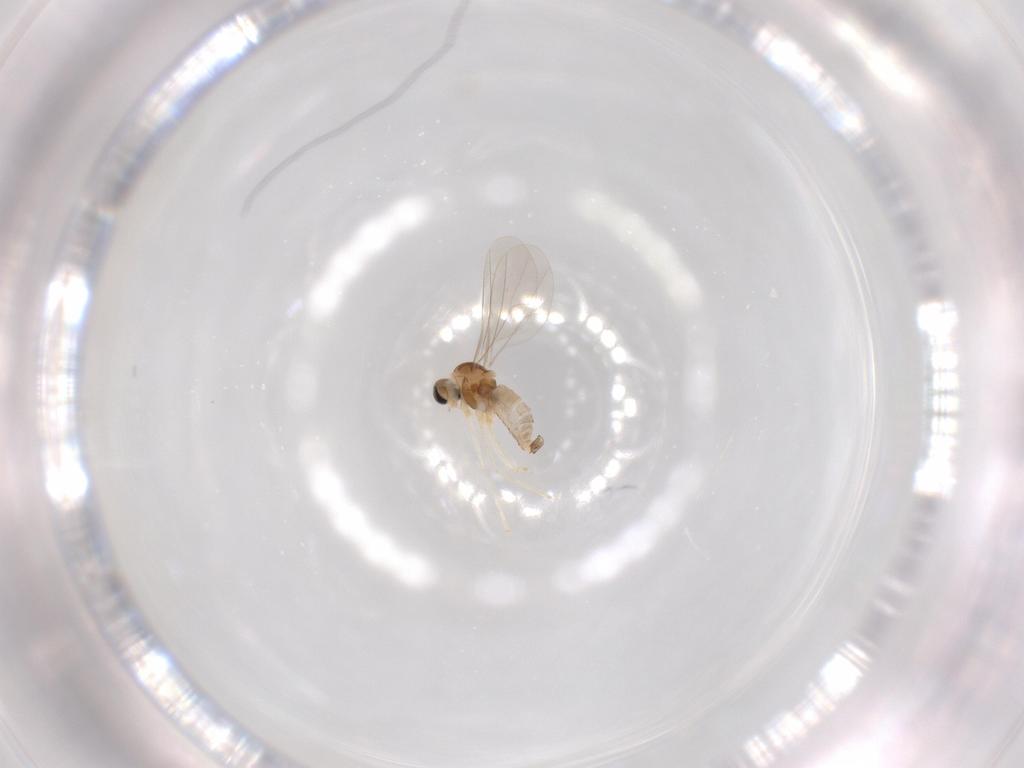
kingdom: Animalia
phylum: Arthropoda
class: Insecta
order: Diptera
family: Cecidomyiidae
